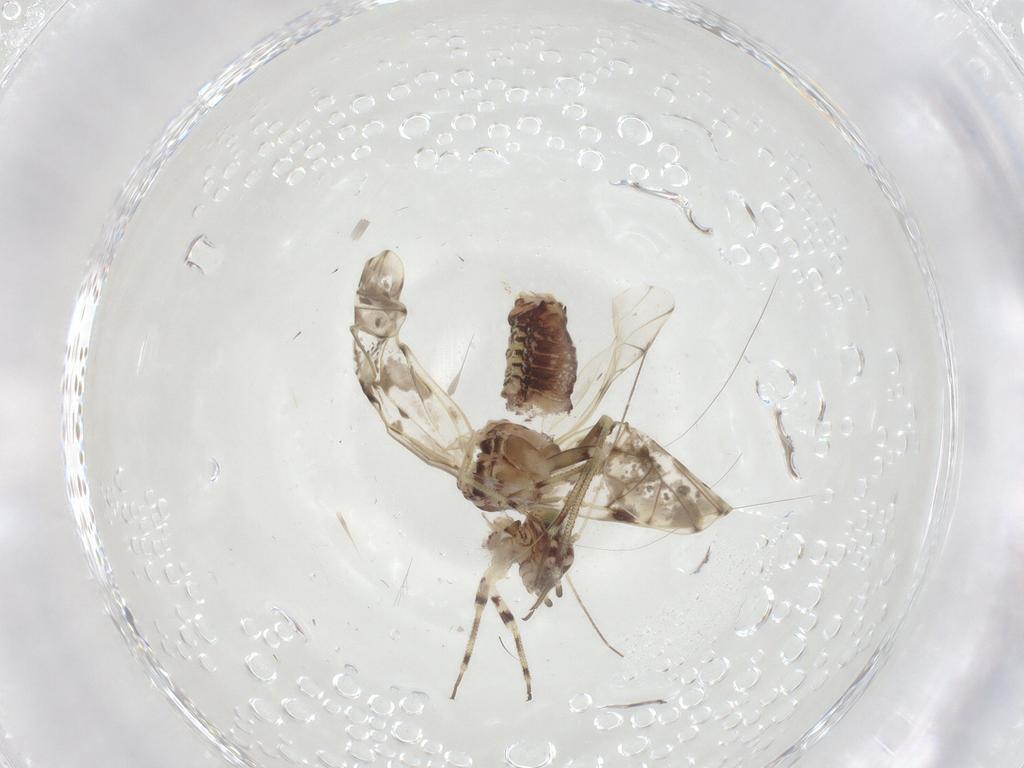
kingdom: Animalia
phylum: Arthropoda
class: Insecta
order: Psocodea
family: Psocidae
